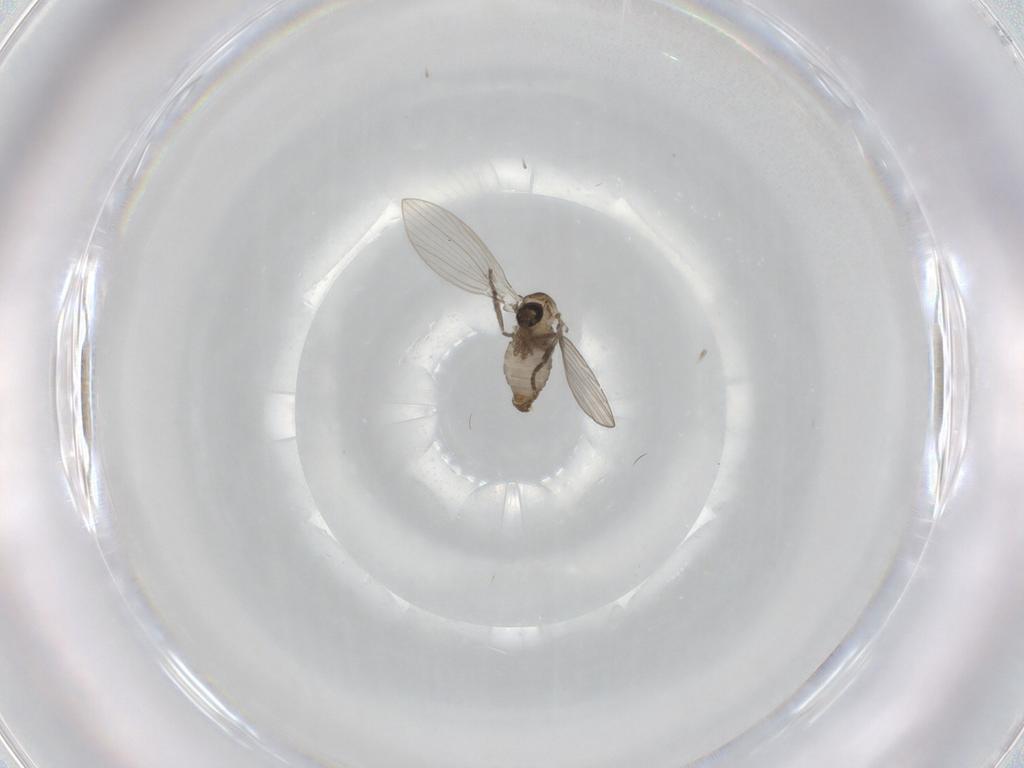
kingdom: Animalia
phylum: Arthropoda
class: Insecta
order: Diptera
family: Psychodidae
